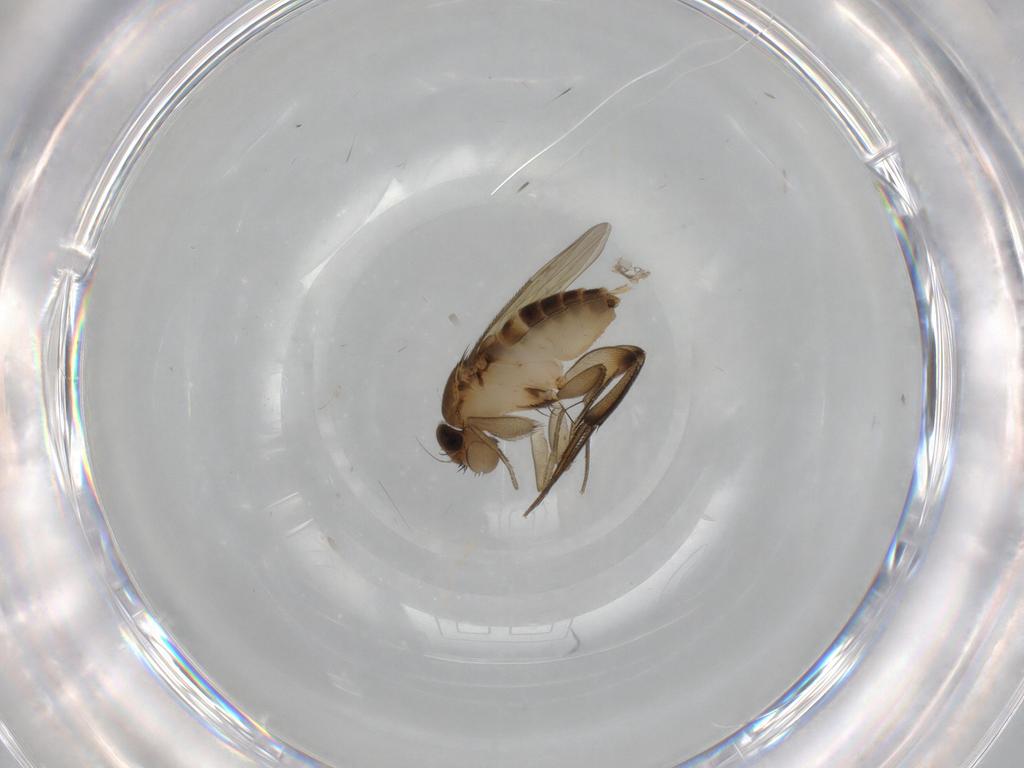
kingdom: Animalia
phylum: Arthropoda
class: Insecta
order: Diptera
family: Phoridae
